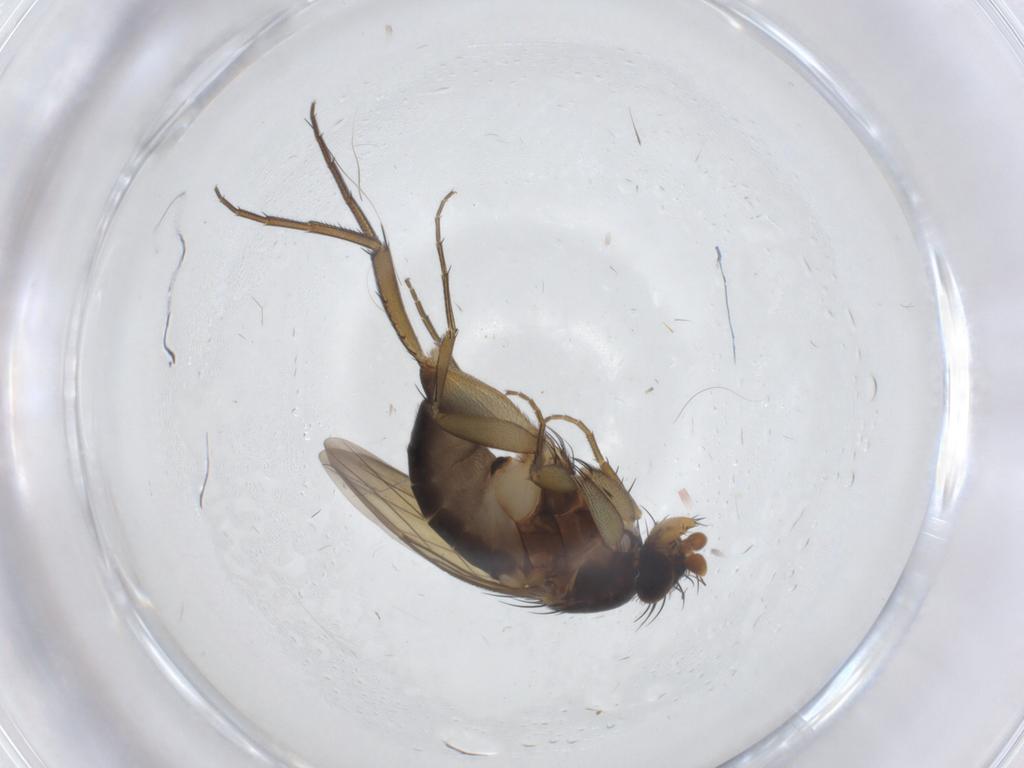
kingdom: Animalia
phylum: Arthropoda
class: Insecta
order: Diptera
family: Phoridae
